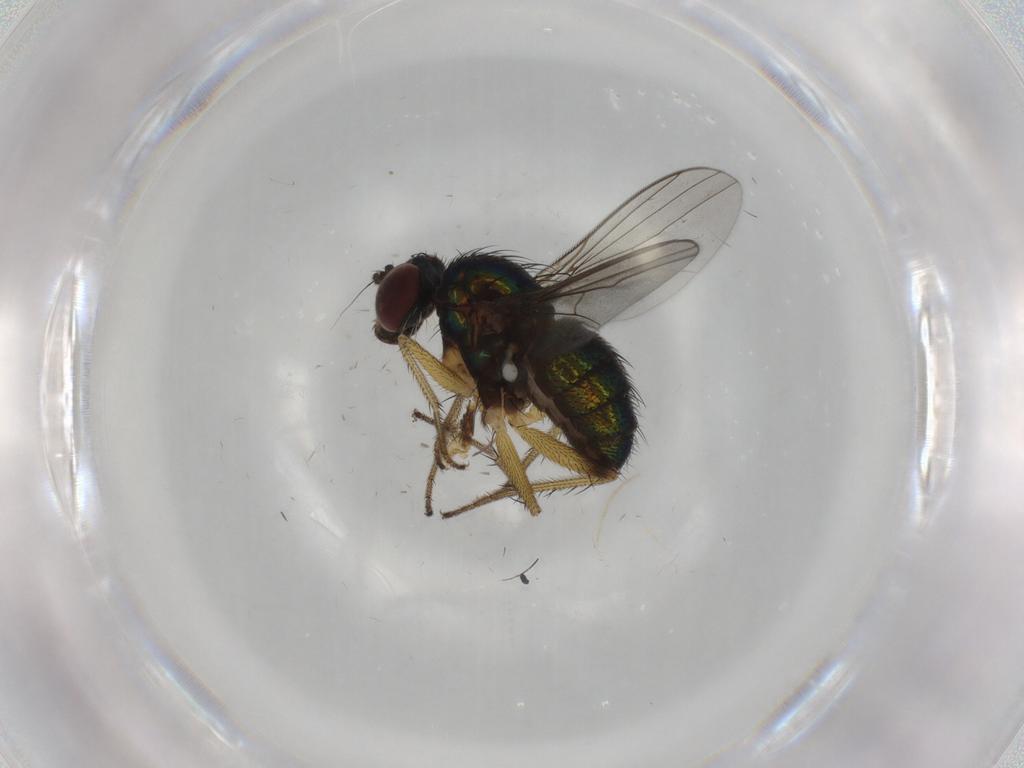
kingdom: Animalia
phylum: Arthropoda
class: Insecta
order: Diptera
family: Dolichopodidae
